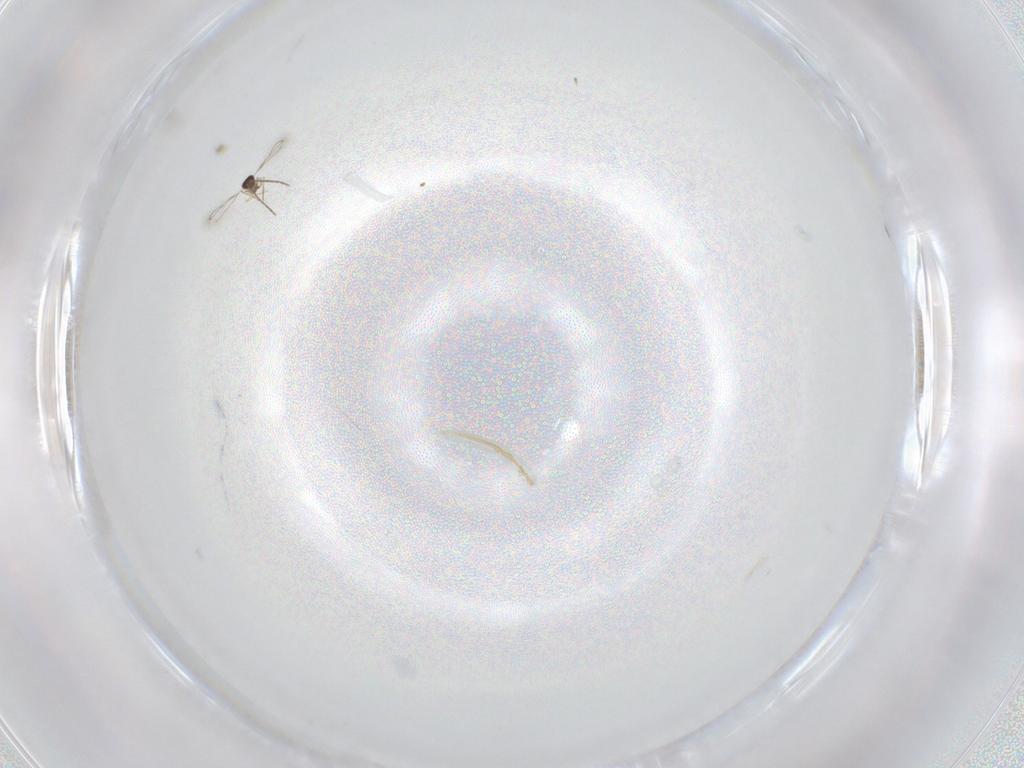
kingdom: Animalia
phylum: Arthropoda
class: Insecta
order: Hymenoptera
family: Mymaridae
